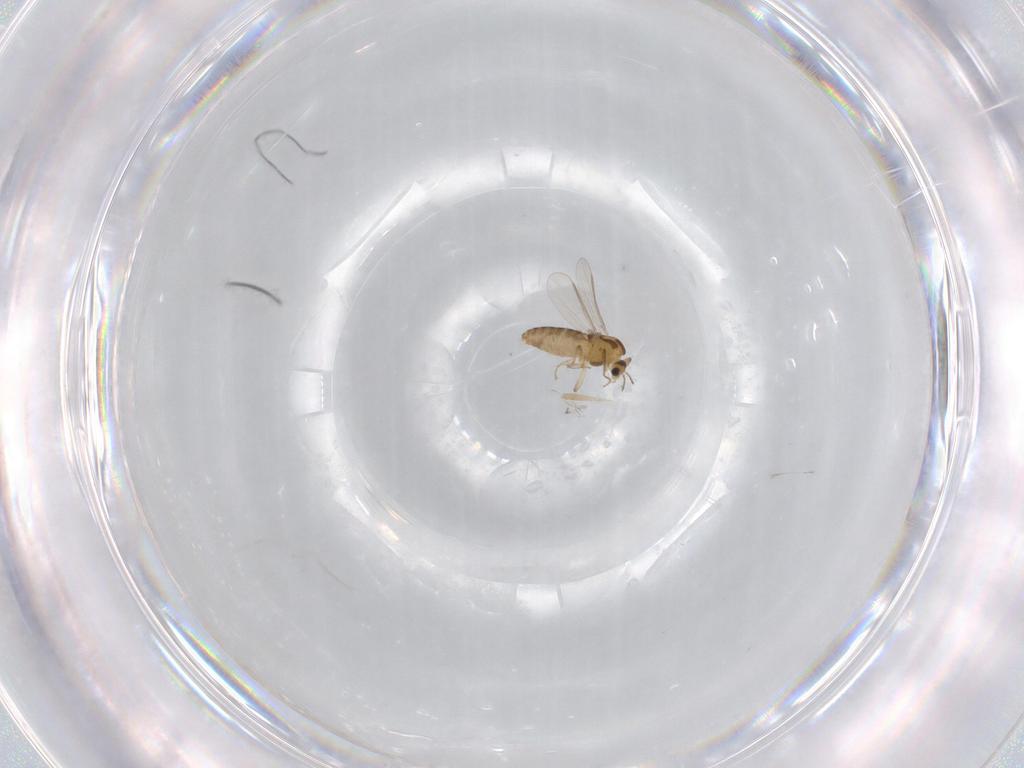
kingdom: Animalia
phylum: Arthropoda
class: Insecta
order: Diptera
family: Chironomidae
